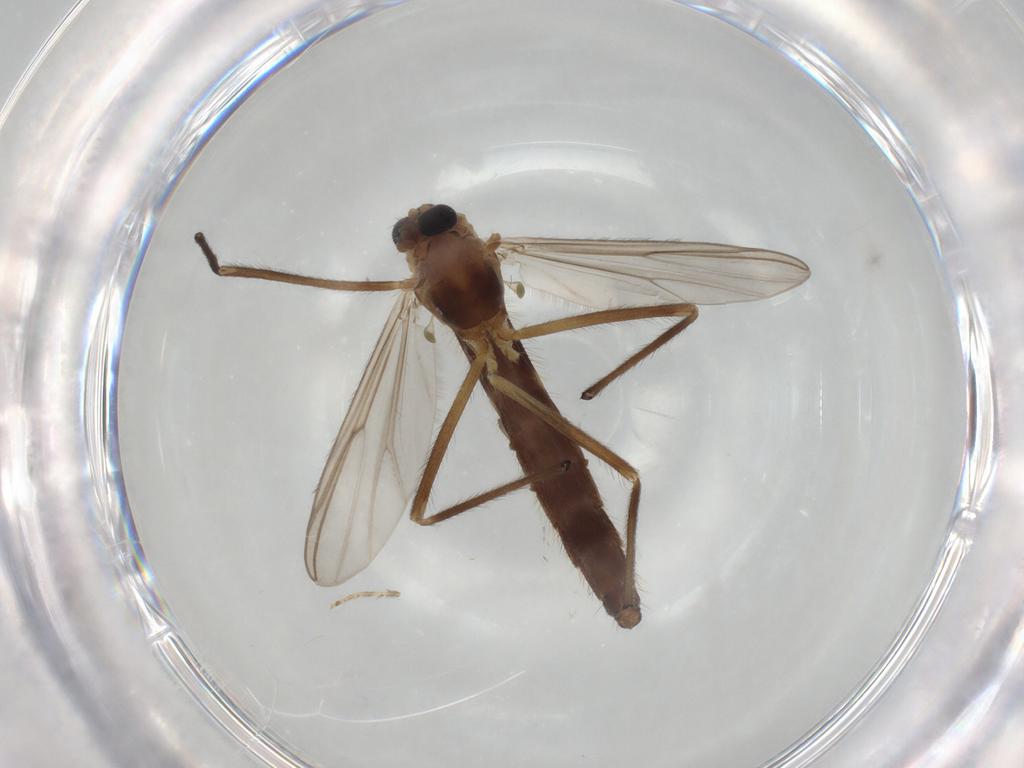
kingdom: Animalia
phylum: Arthropoda
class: Insecta
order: Diptera
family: Chironomidae
